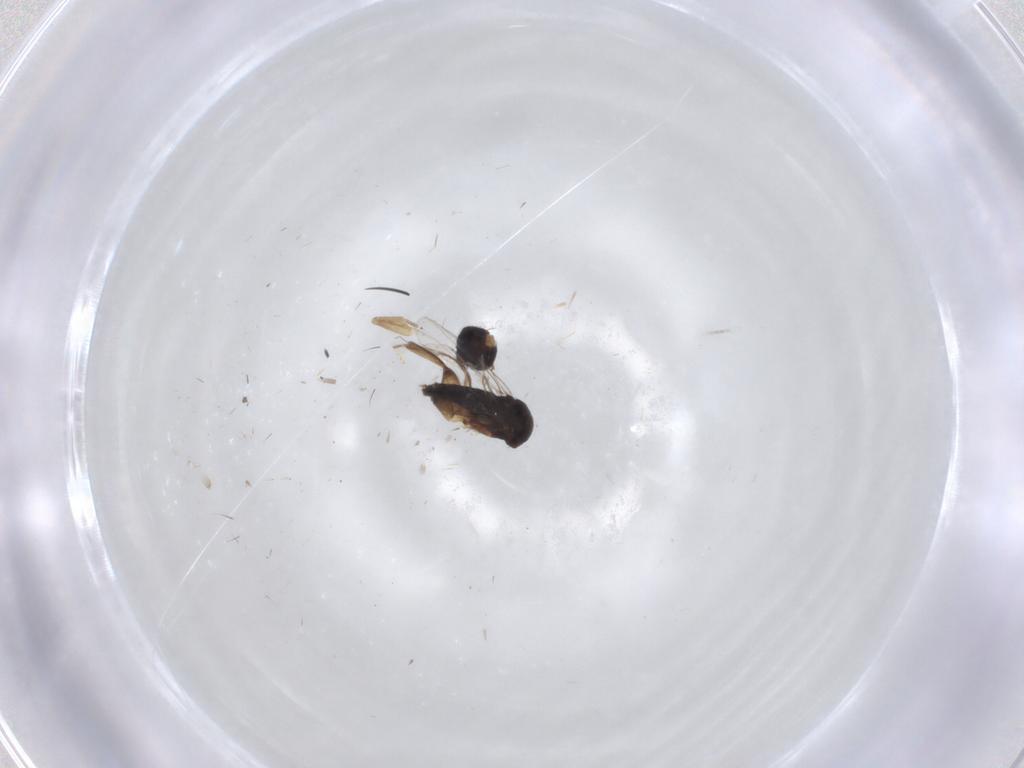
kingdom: Animalia
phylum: Arthropoda
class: Insecta
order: Diptera
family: Phoridae
